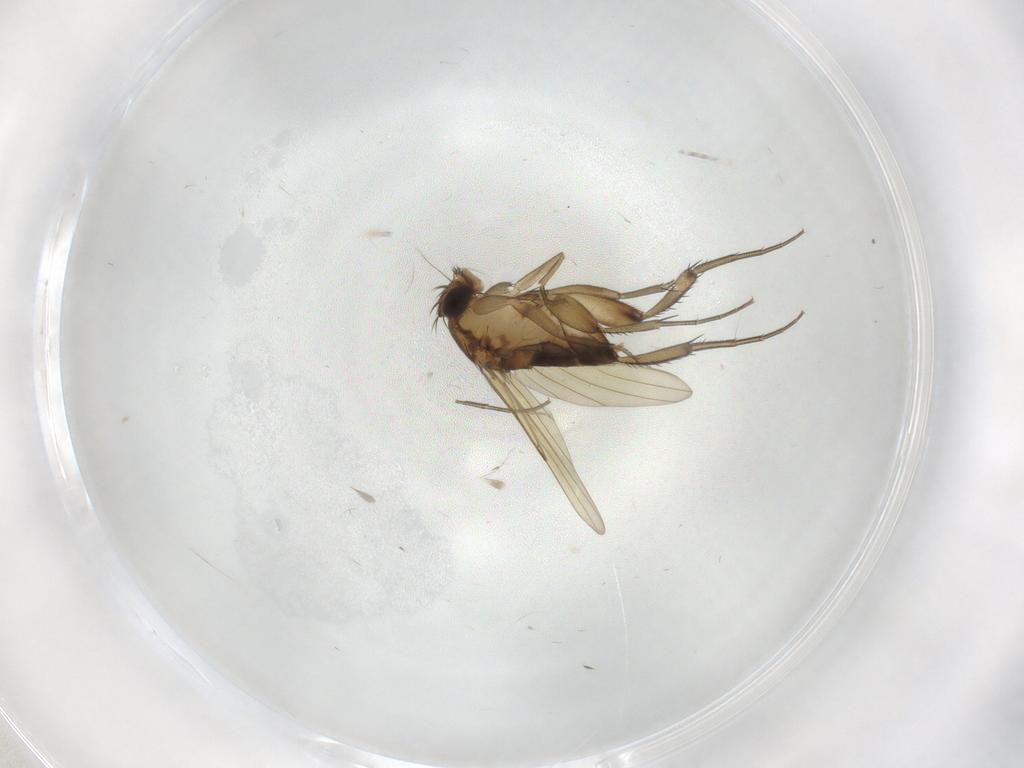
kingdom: Animalia
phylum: Arthropoda
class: Insecta
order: Diptera
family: Phoridae
